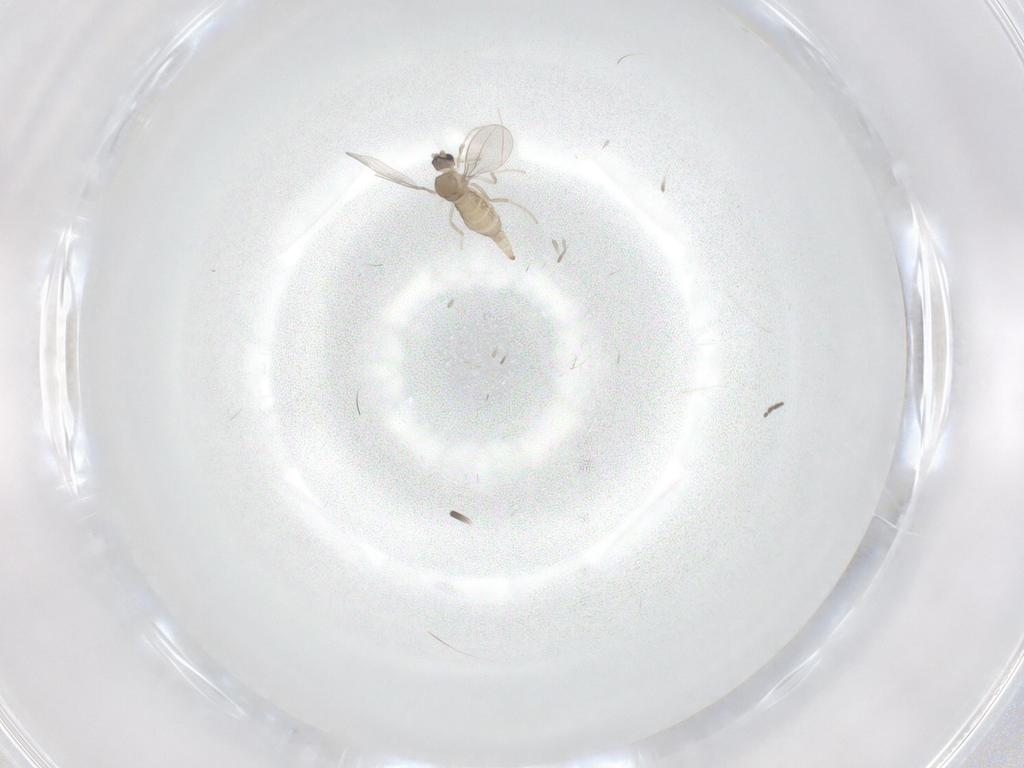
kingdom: Animalia
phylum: Arthropoda
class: Insecta
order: Diptera
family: Cecidomyiidae
